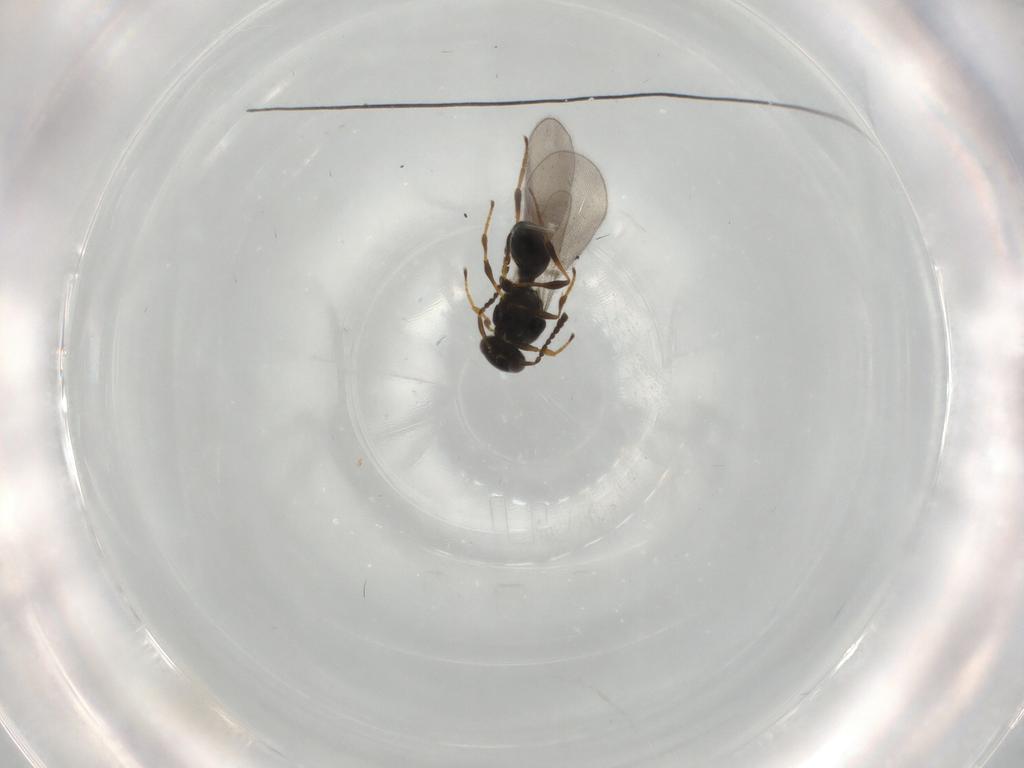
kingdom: Animalia
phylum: Arthropoda
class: Insecta
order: Hymenoptera
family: Platygastridae
